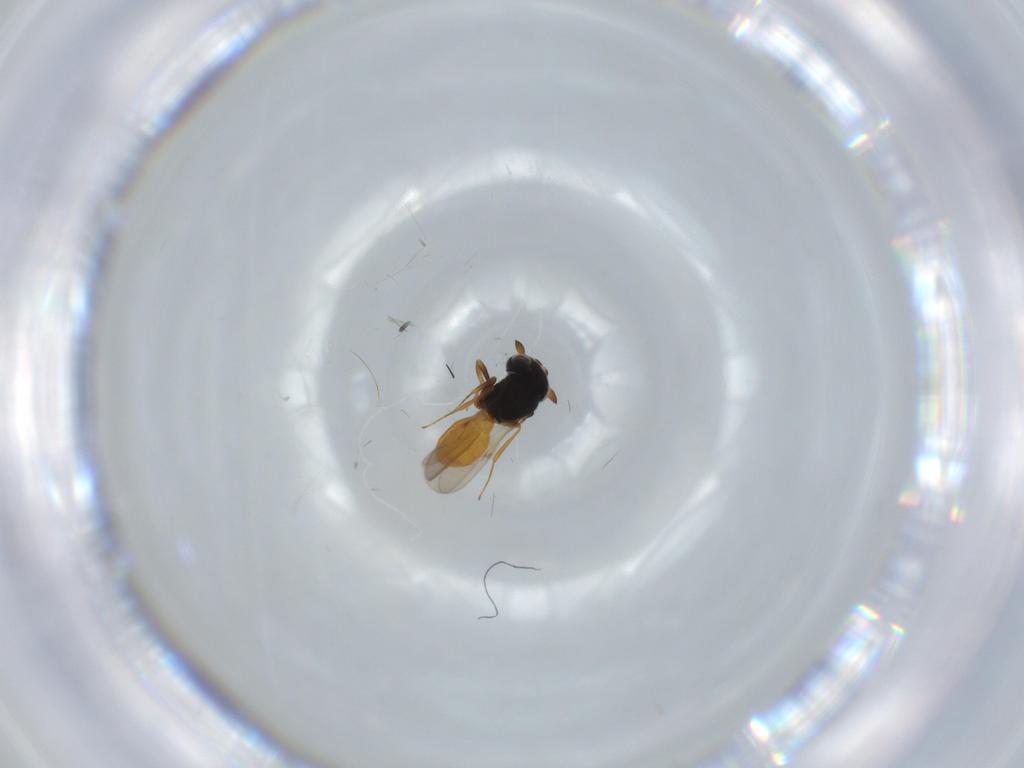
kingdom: Animalia
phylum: Arthropoda
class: Insecta
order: Hymenoptera
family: Scelionidae
